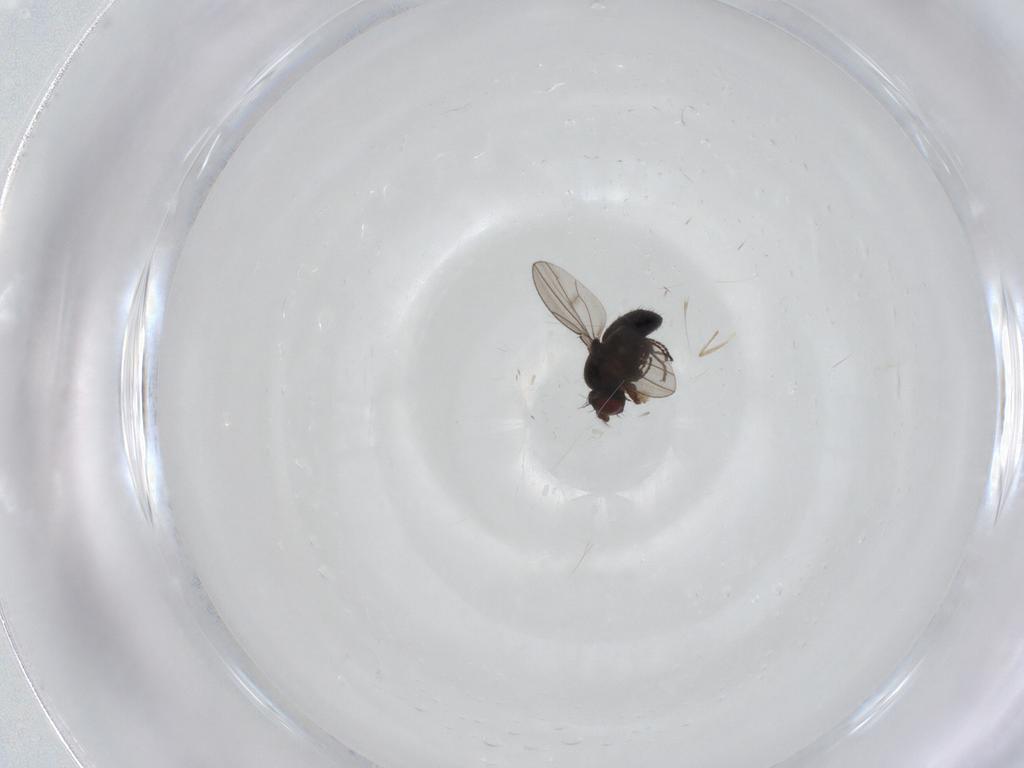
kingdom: Animalia
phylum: Arthropoda
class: Insecta
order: Diptera
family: Ephydridae
